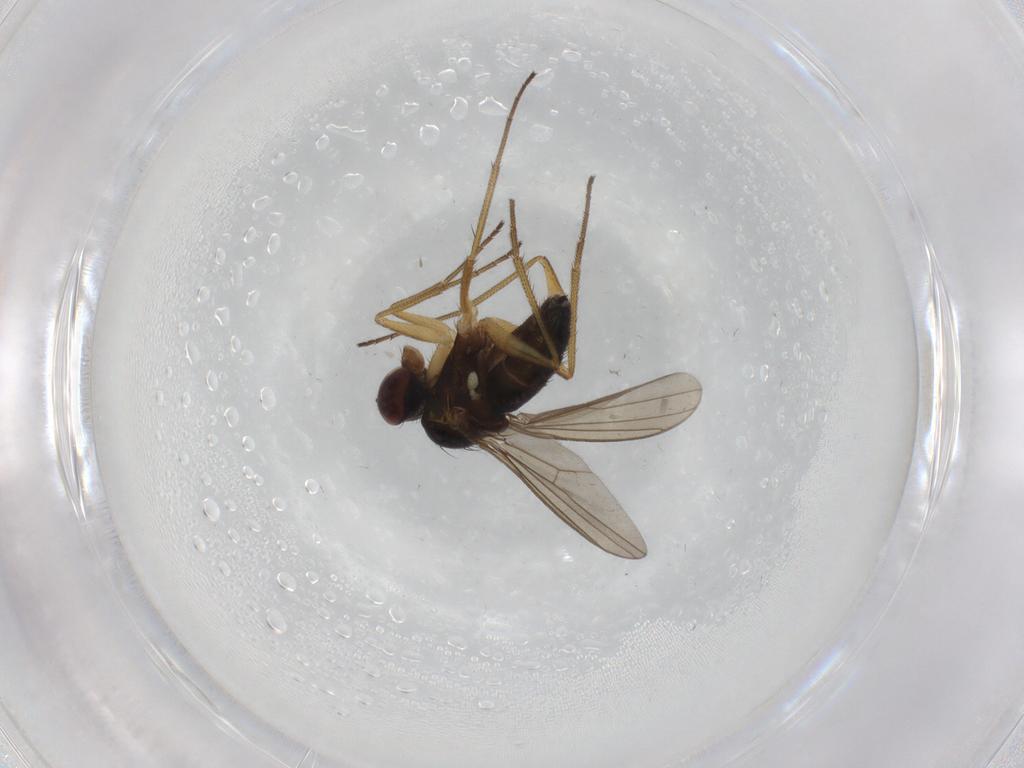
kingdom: Animalia
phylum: Arthropoda
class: Insecta
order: Diptera
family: Dolichopodidae
